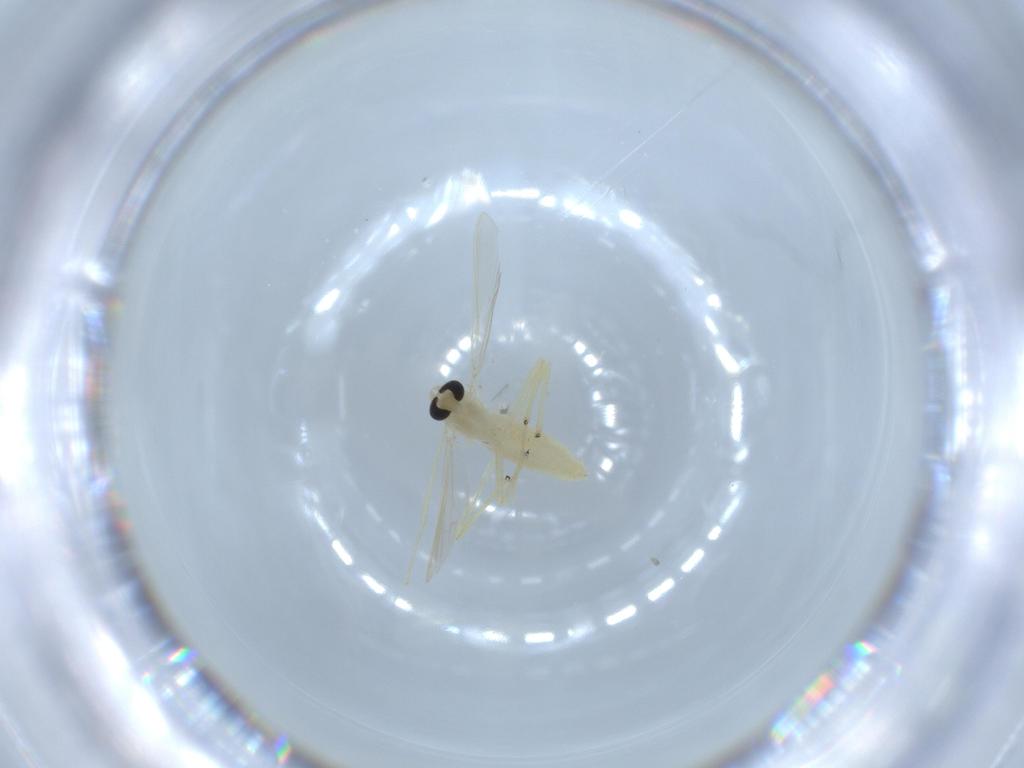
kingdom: Animalia
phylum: Arthropoda
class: Insecta
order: Diptera
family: Chironomidae
